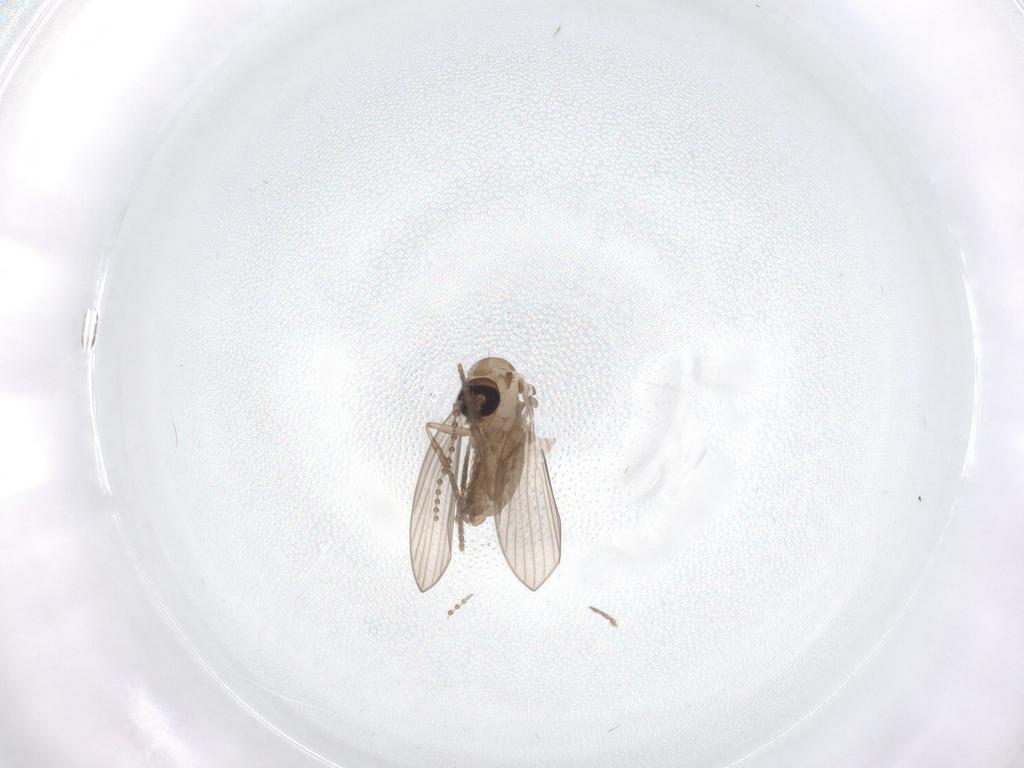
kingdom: Animalia
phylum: Arthropoda
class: Insecta
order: Diptera
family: Psychodidae
